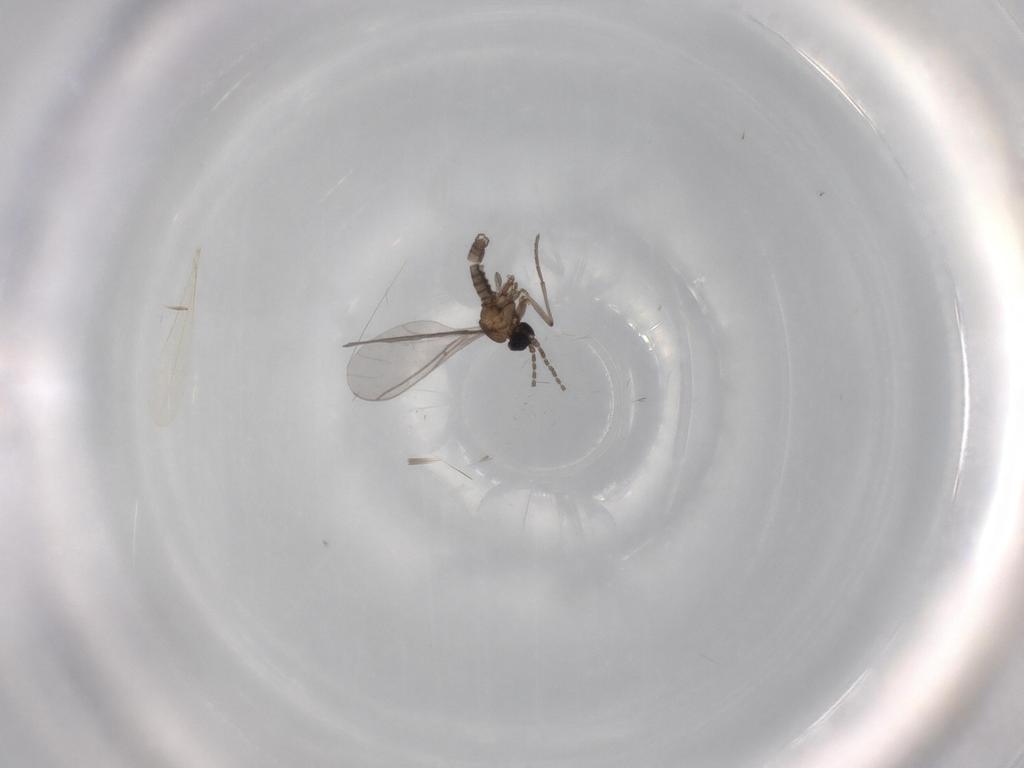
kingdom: Animalia
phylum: Arthropoda
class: Insecta
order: Diptera
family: Sciaridae
